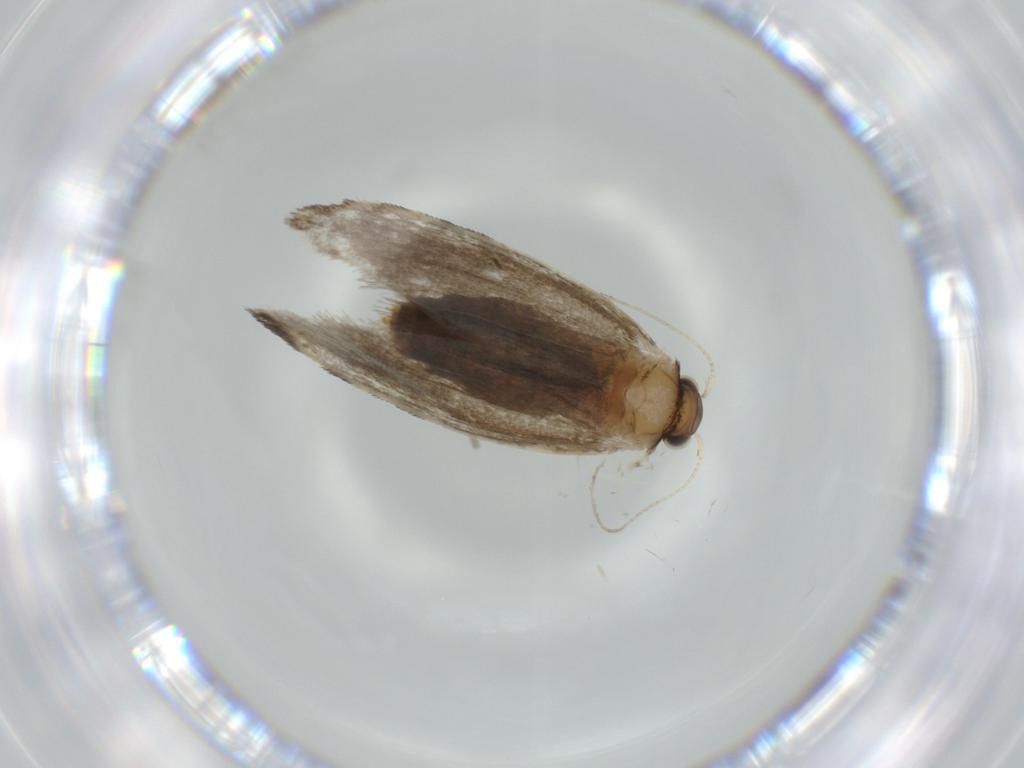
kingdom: Animalia
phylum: Arthropoda
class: Insecta
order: Lepidoptera
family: Tineidae
